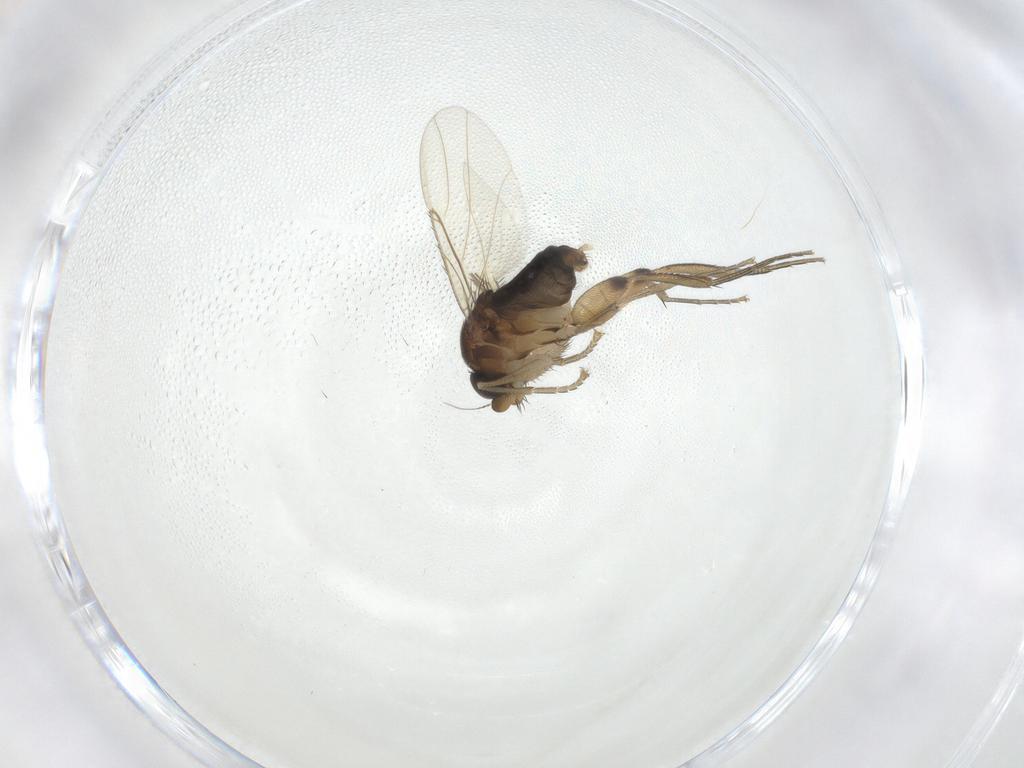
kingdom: Animalia
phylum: Arthropoda
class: Insecta
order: Diptera
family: Phoridae
